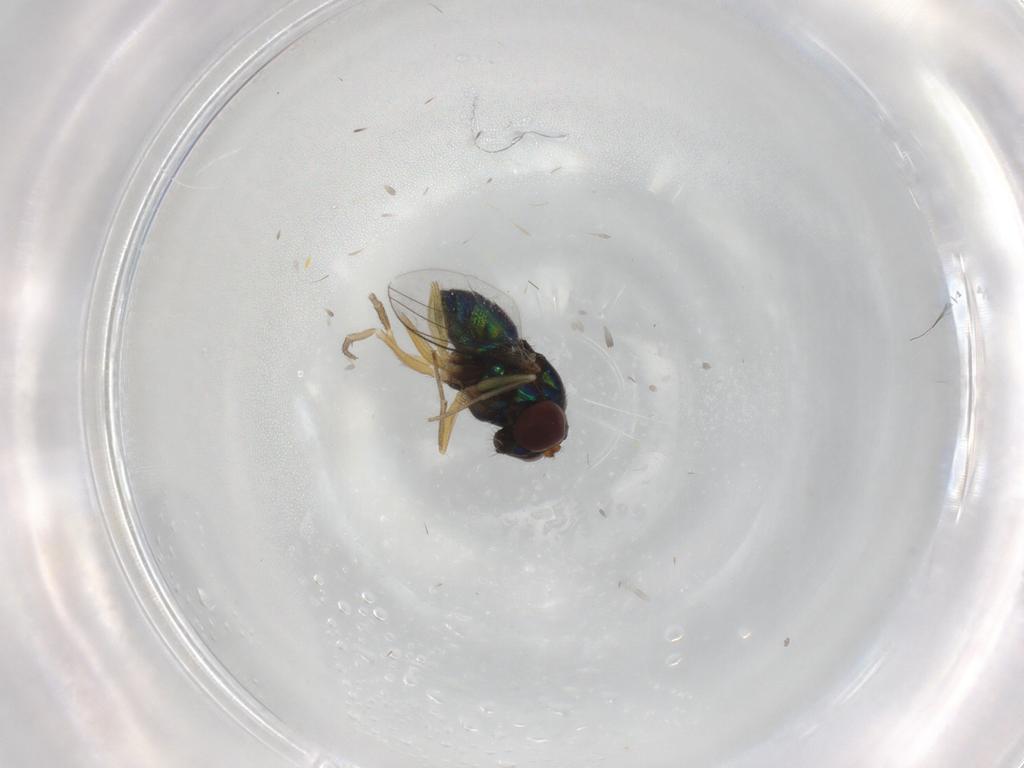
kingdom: Animalia
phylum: Arthropoda
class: Insecta
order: Diptera
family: Dolichopodidae
